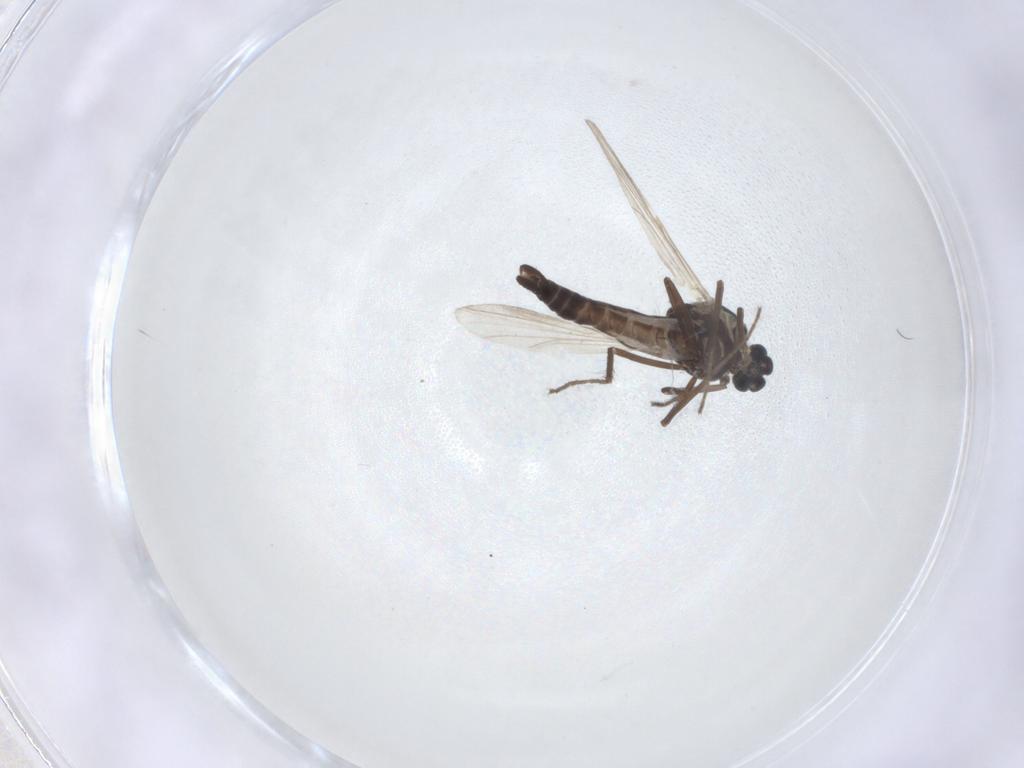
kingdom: Animalia
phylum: Arthropoda
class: Insecta
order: Diptera
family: Ceratopogonidae
